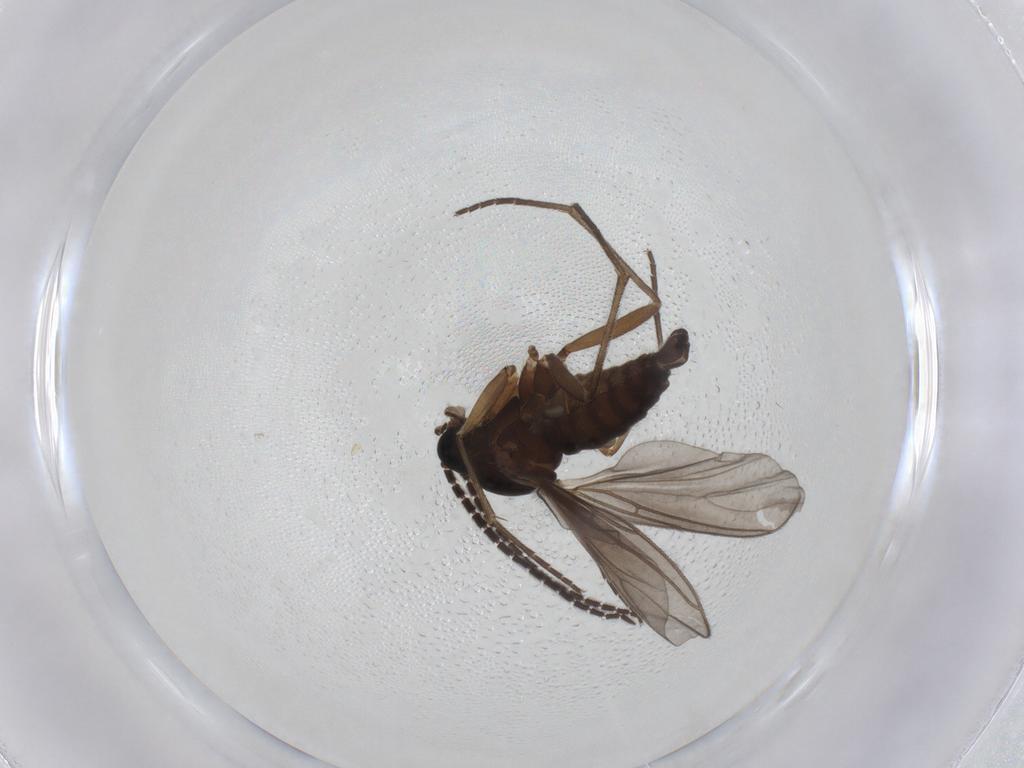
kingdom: Animalia
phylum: Arthropoda
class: Insecta
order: Diptera
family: Sciaridae
